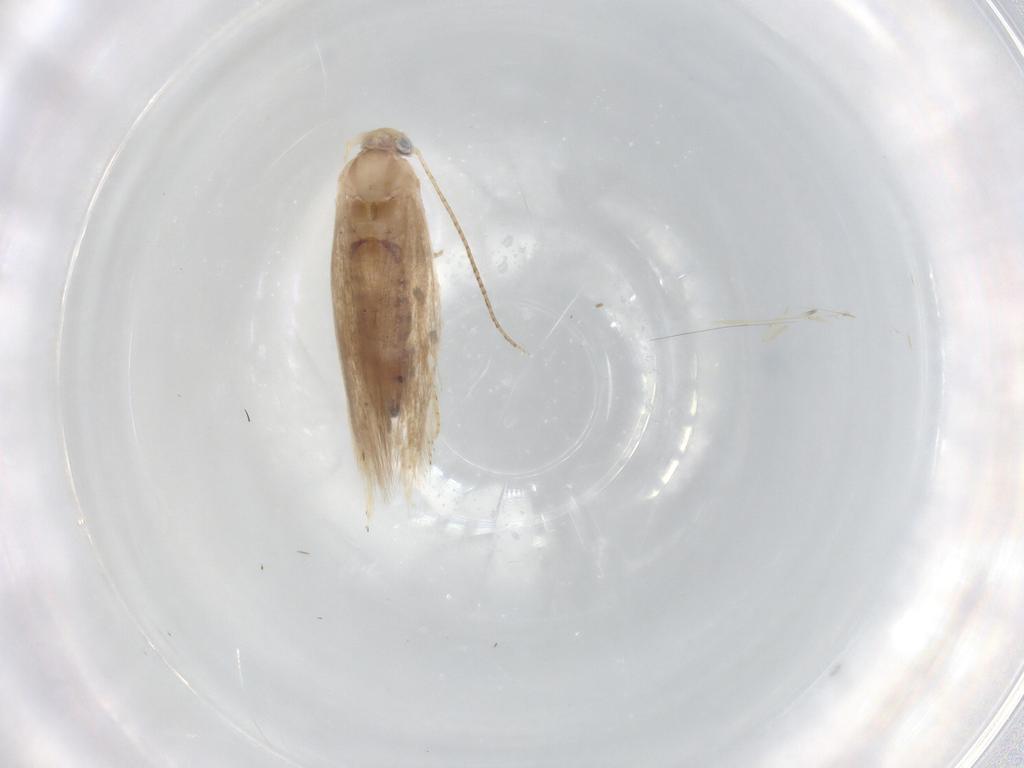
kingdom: Animalia
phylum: Arthropoda
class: Insecta
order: Lepidoptera
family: Bucculatricidae
